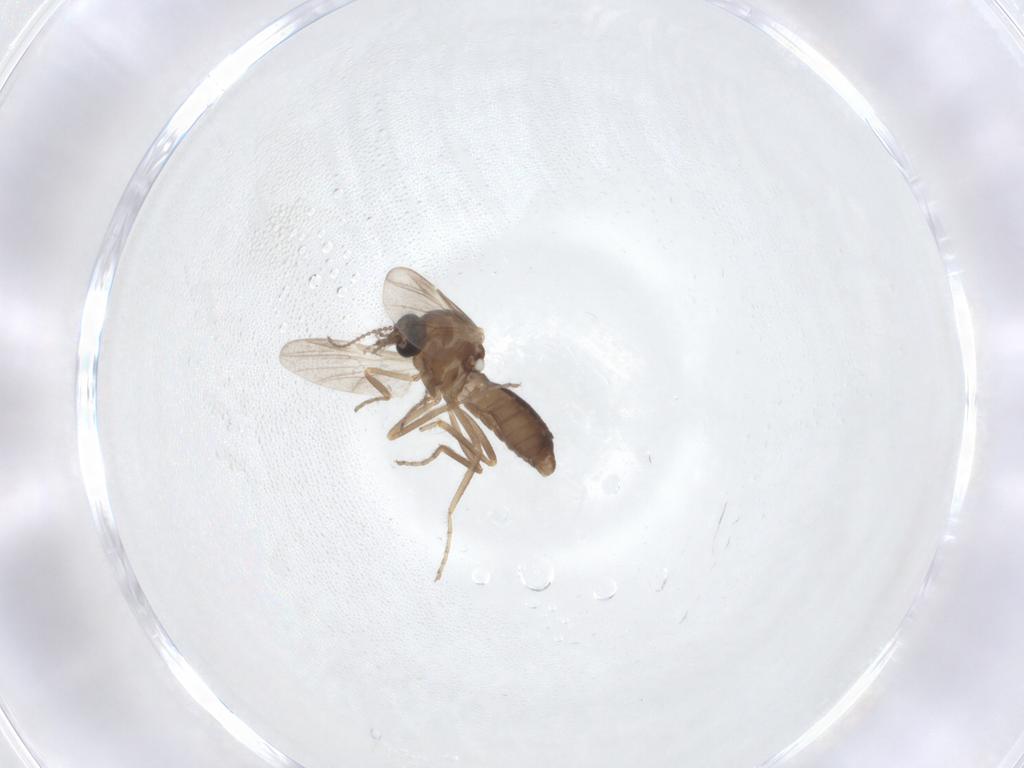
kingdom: Animalia
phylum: Arthropoda
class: Insecta
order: Diptera
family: Ceratopogonidae
